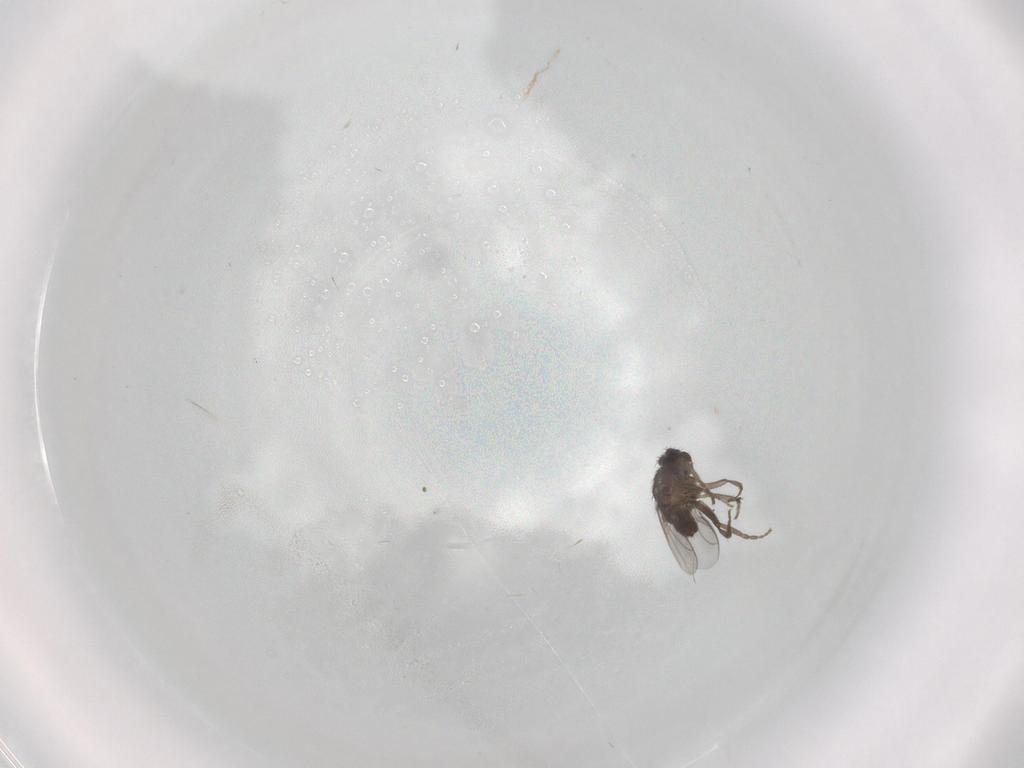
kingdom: Animalia
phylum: Arthropoda
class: Insecta
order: Diptera
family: Sphaeroceridae
